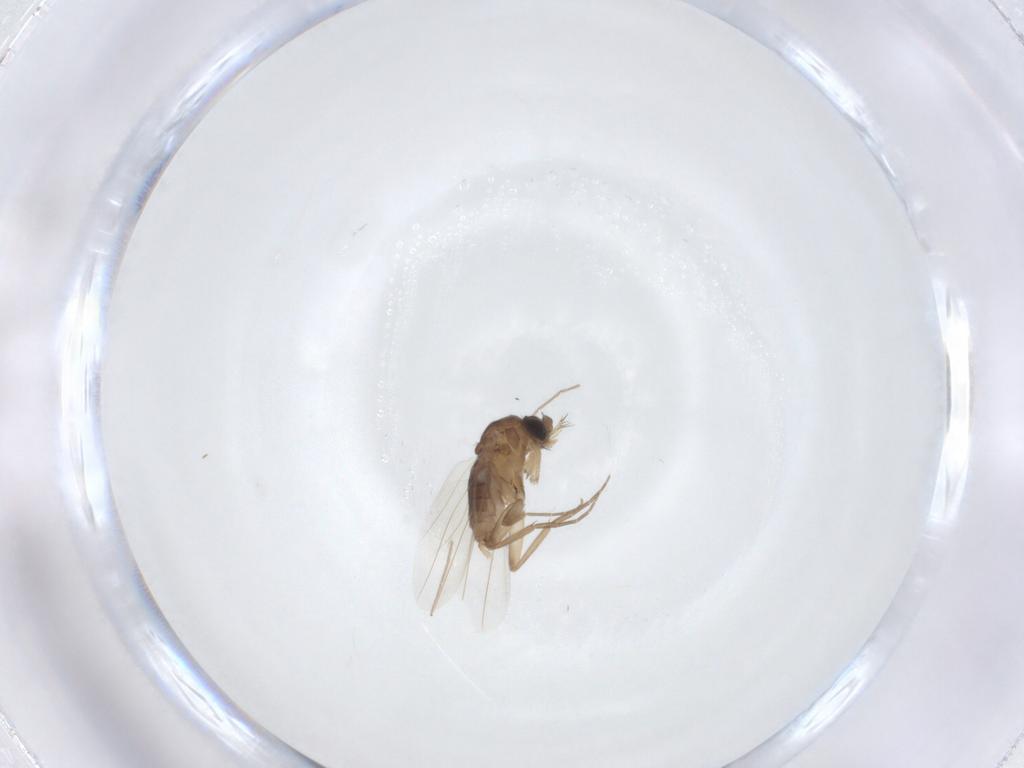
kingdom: Animalia
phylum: Arthropoda
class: Insecta
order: Diptera
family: Phoridae
